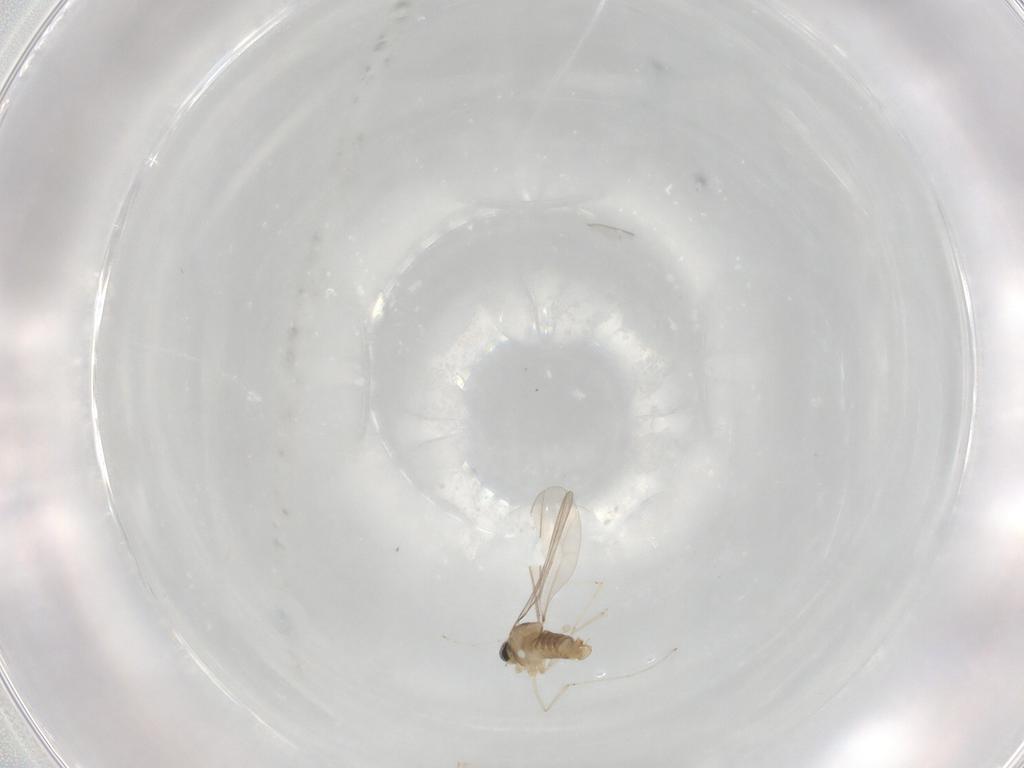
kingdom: Animalia
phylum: Arthropoda
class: Insecta
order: Diptera
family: Cecidomyiidae
